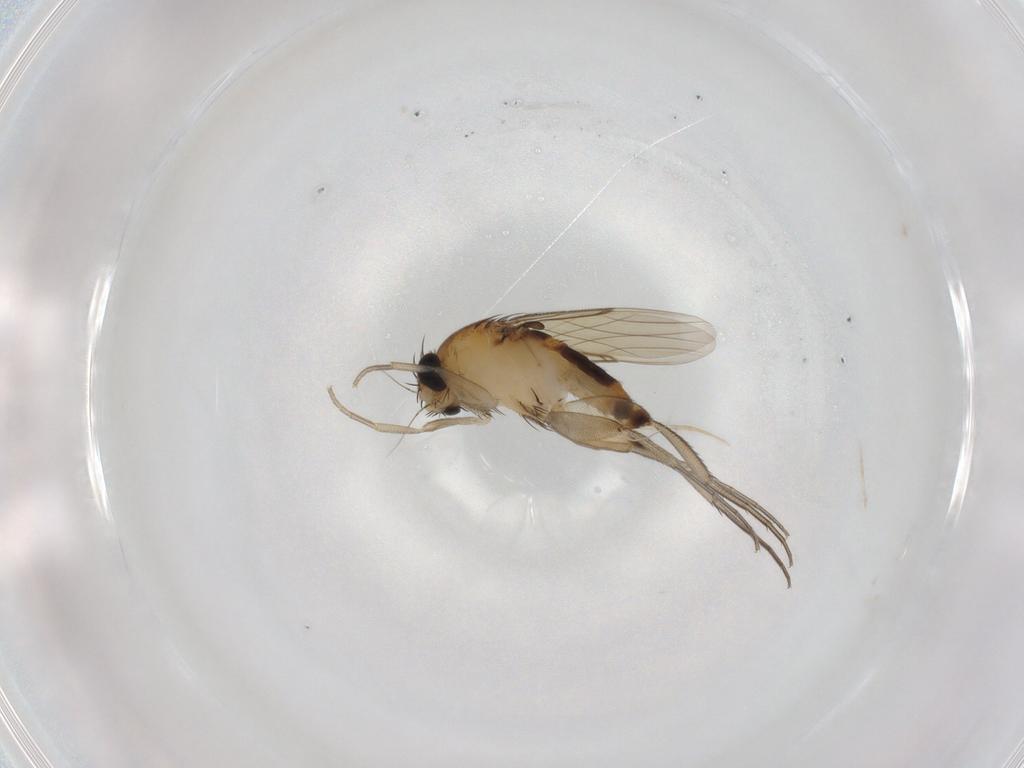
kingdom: Animalia
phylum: Arthropoda
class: Insecta
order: Diptera
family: Phoridae
